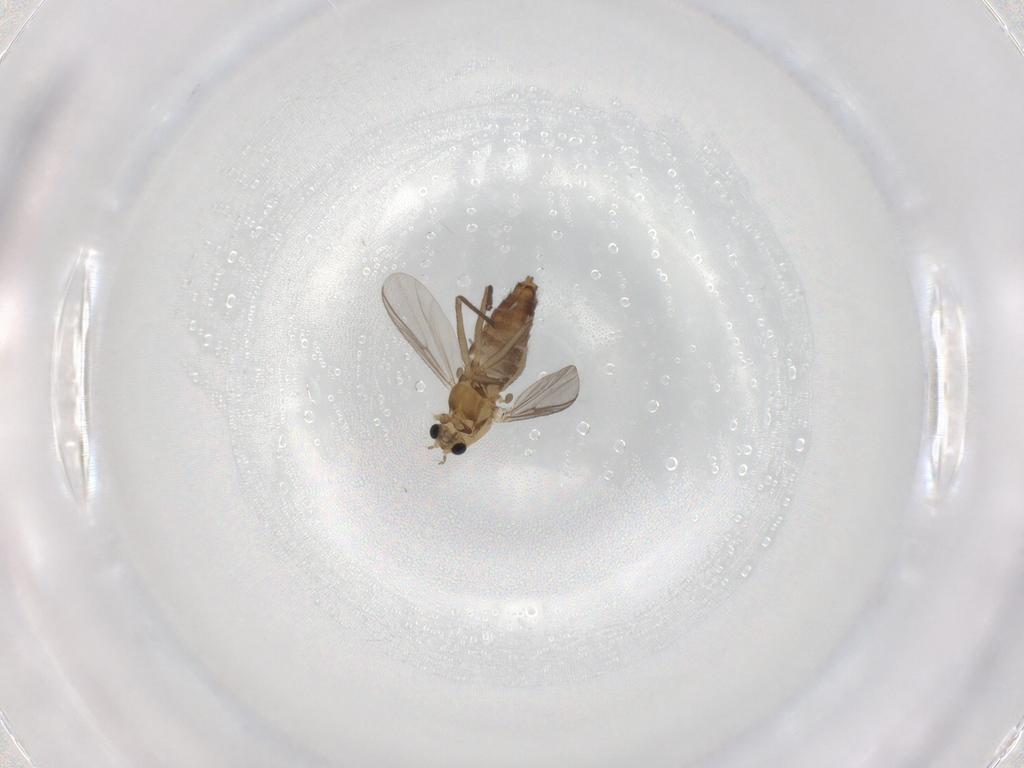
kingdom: Animalia
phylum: Arthropoda
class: Insecta
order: Diptera
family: Chironomidae
